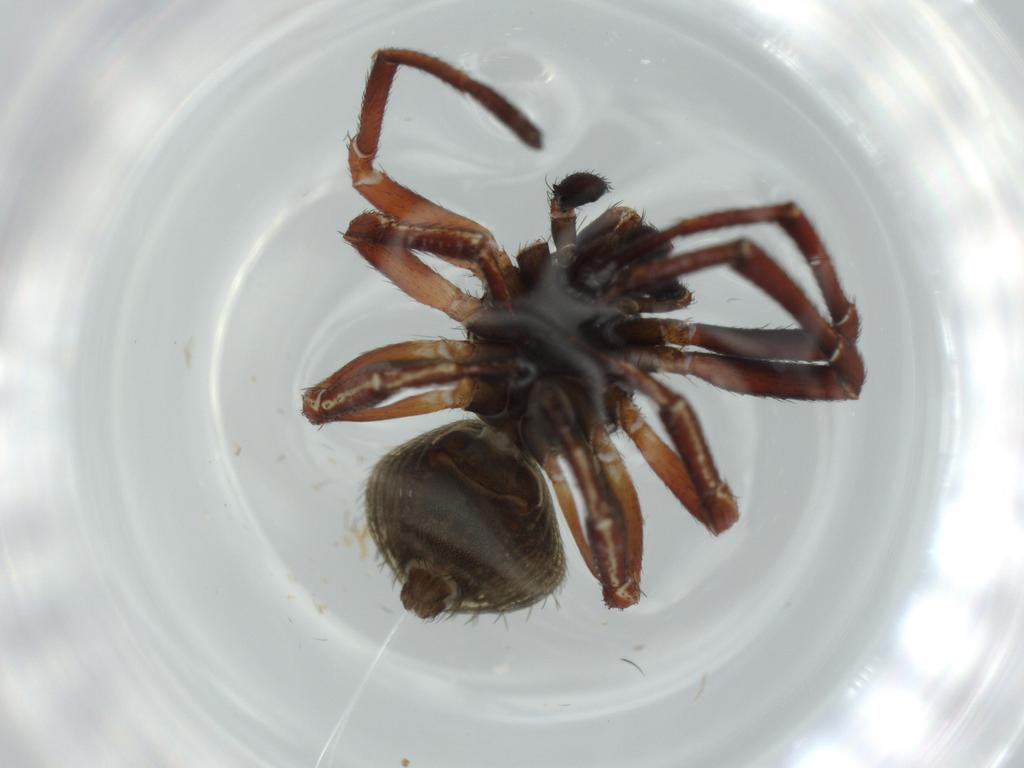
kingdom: Animalia
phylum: Arthropoda
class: Arachnida
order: Araneae
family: Thomisidae
